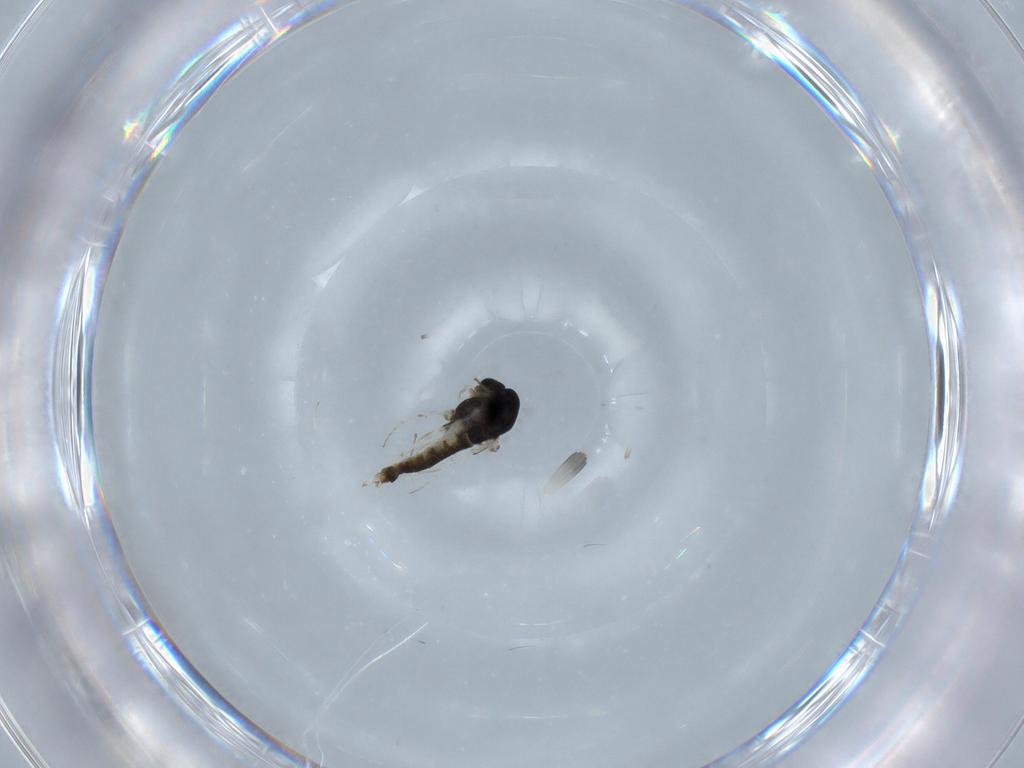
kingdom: Animalia
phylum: Arthropoda
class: Insecta
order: Diptera
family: Chironomidae
